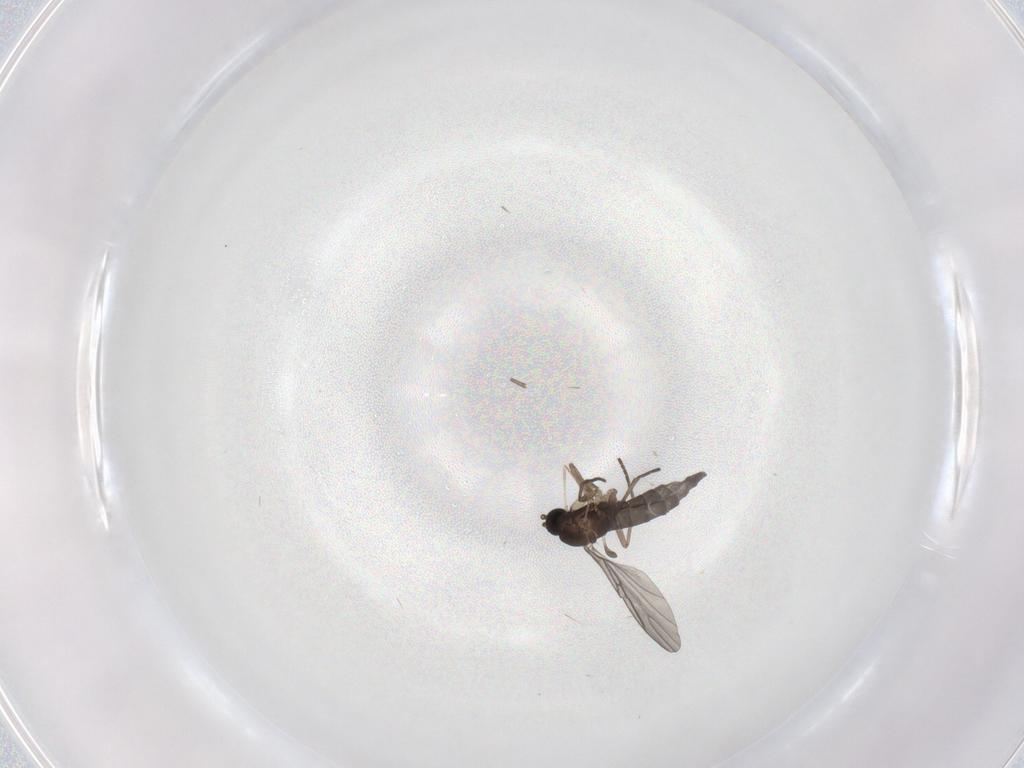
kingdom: Animalia
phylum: Arthropoda
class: Insecta
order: Diptera
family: Sciaridae
